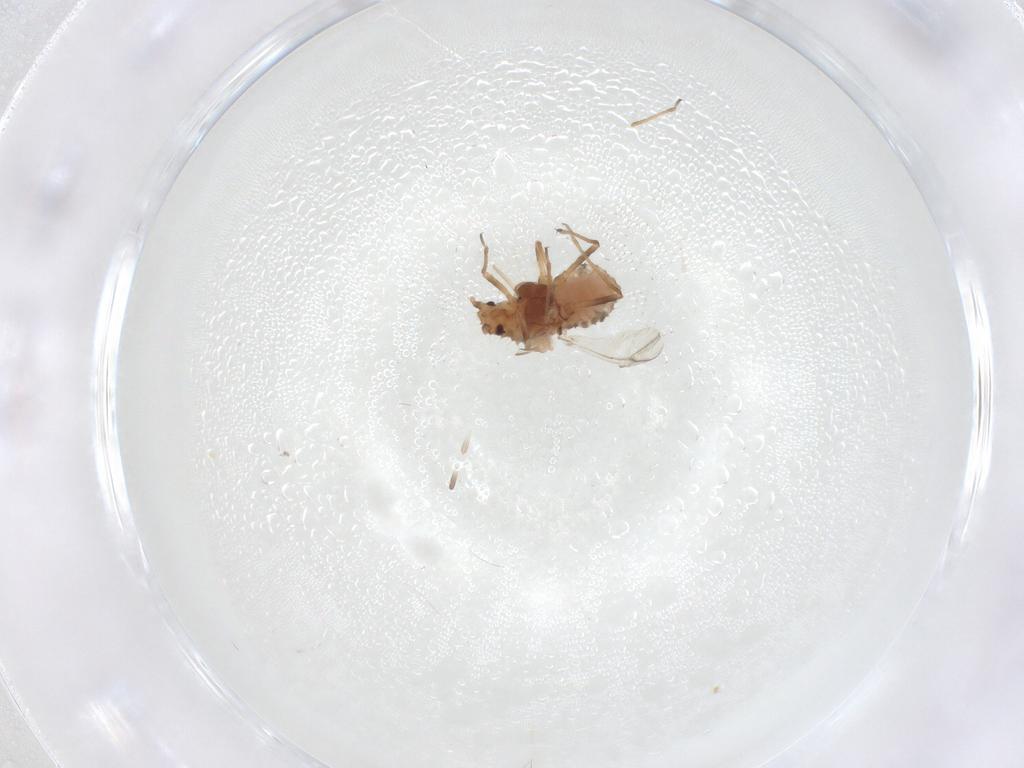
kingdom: Animalia
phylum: Arthropoda
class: Insecta
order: Hemiptera
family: Aphididae
